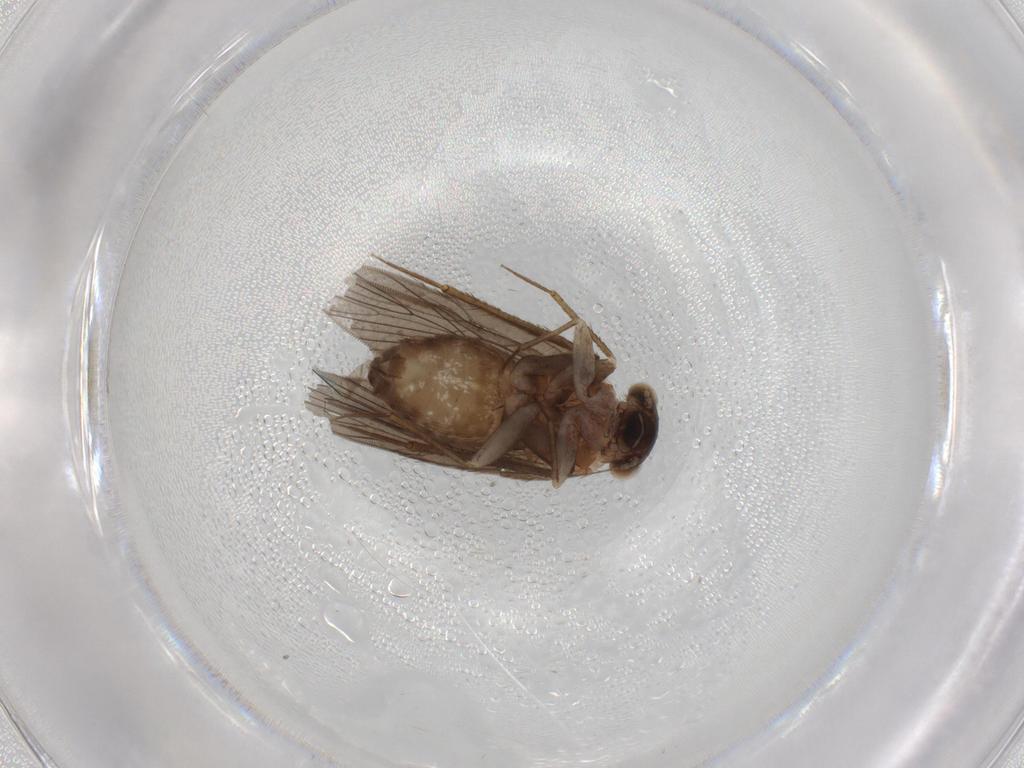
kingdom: Animalia
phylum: Arthropoda
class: Insecta
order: Psocodea
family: Lepidopsocidae
